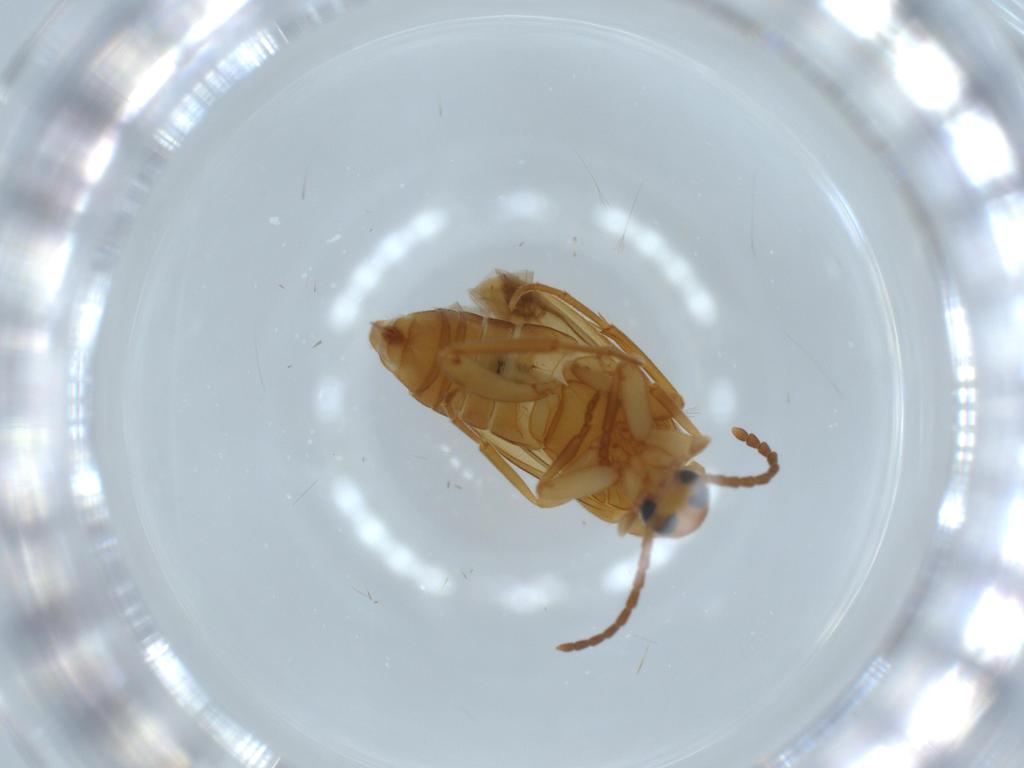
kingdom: Animalia
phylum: Arthropoda
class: Insecta
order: Coleoptera
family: Scraptiidae
